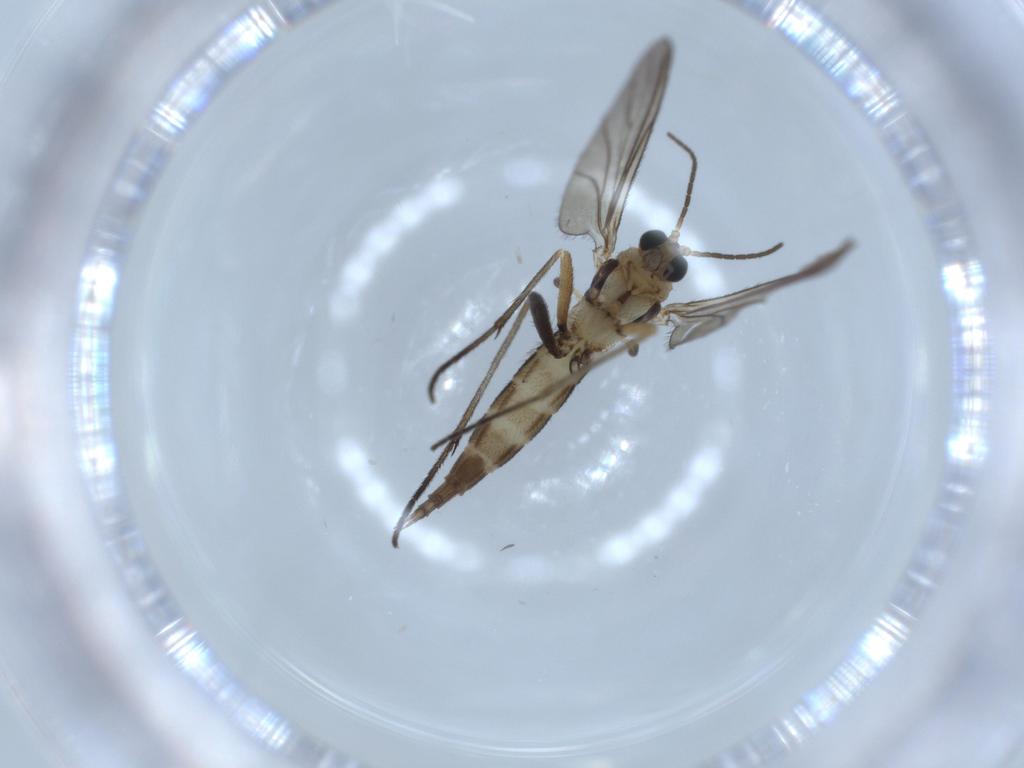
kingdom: Animalia
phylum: Arthropoda
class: Insecta
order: Diptera
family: Sciaridae
